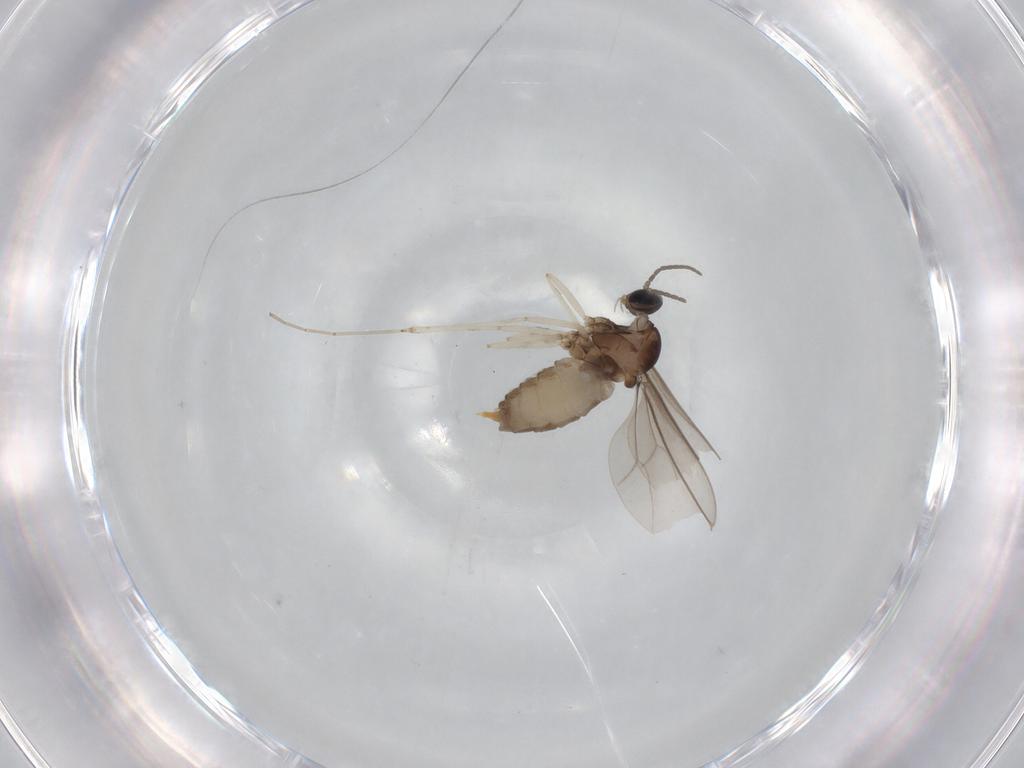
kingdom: Animalia
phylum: Arthropoda
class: Insecta
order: Diptera
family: Cecidomyiidae
